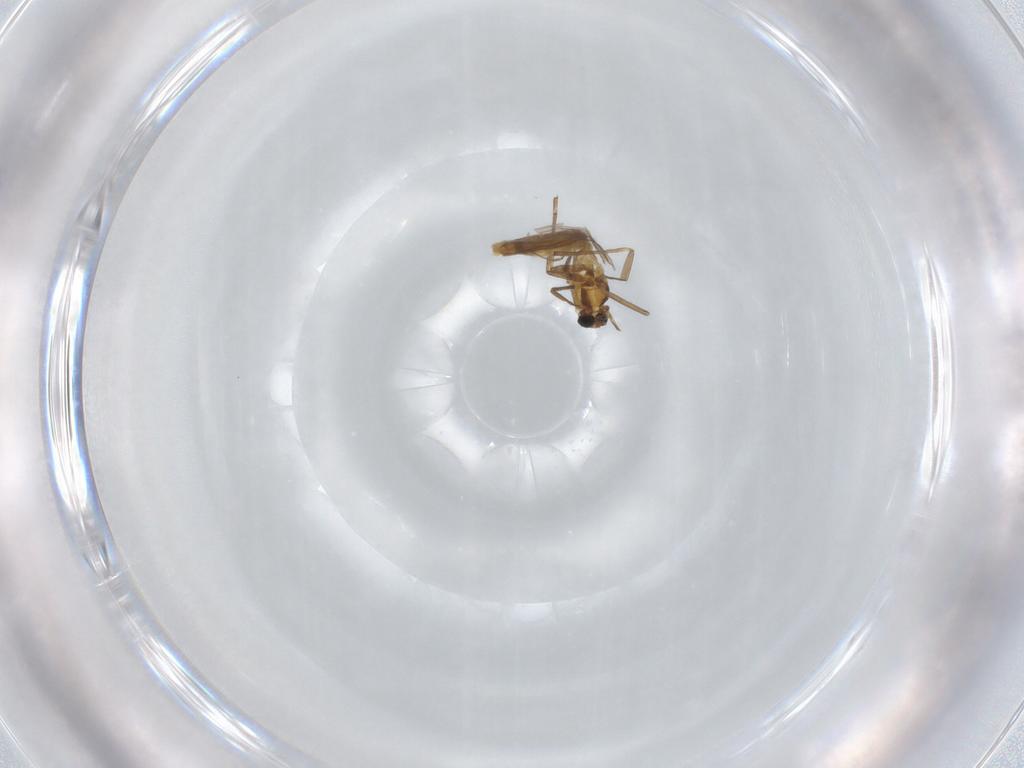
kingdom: Animalia
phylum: Arthropoda
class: Insecta
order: Diptera
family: Chironomidae
